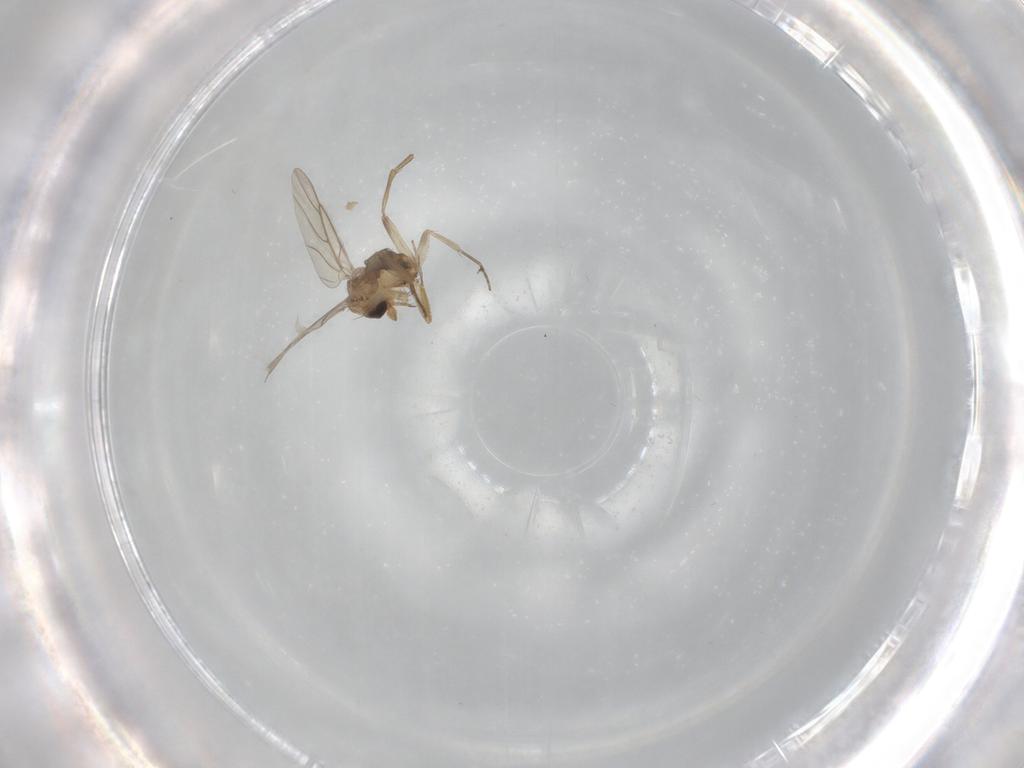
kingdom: Animalia
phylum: Arthropoda
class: Insecta
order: Diptera
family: Phoridae
